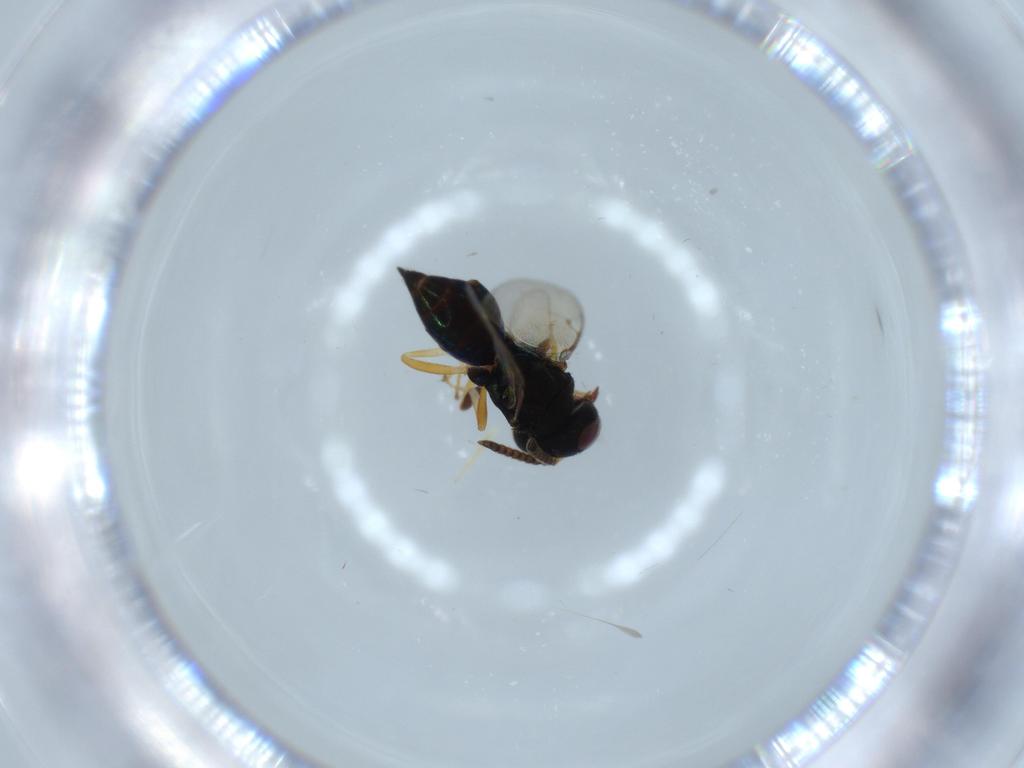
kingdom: Animalia
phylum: Arthropoda
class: Insecta
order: Hymenoptera
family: Pteromalidae
